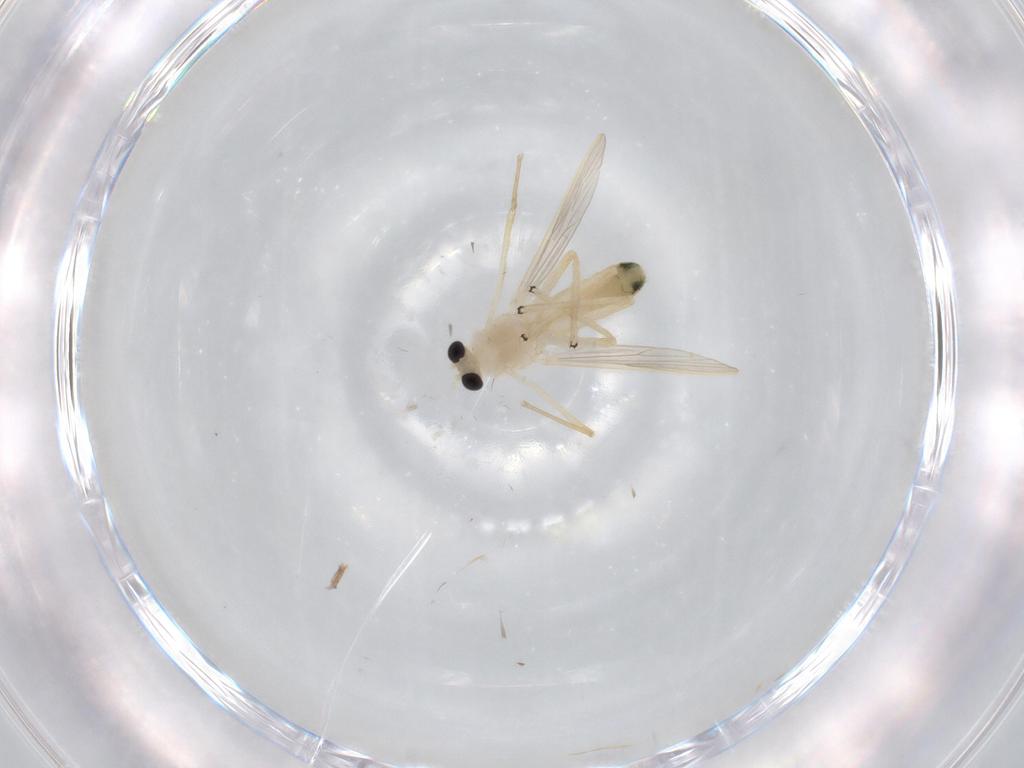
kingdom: Animalia
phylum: Arthropoda
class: Insecta
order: Diptera
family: Chironomidae
